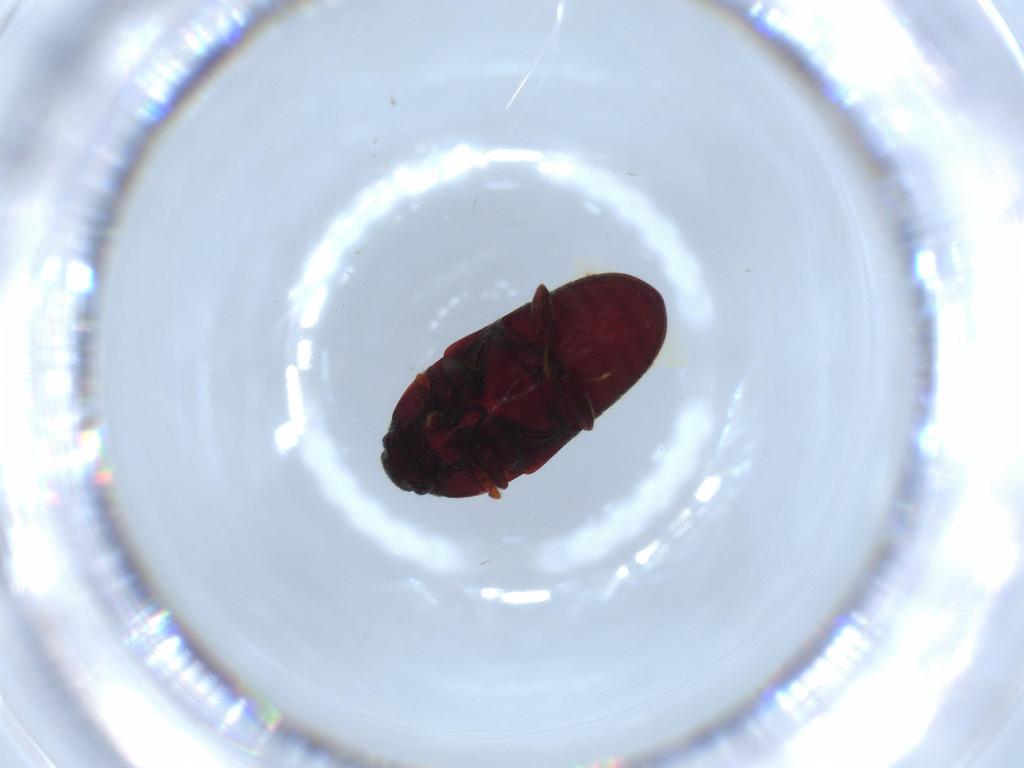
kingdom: Animalia
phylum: Arthropoda
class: Insecta
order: Coleoptera
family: Throscidae
